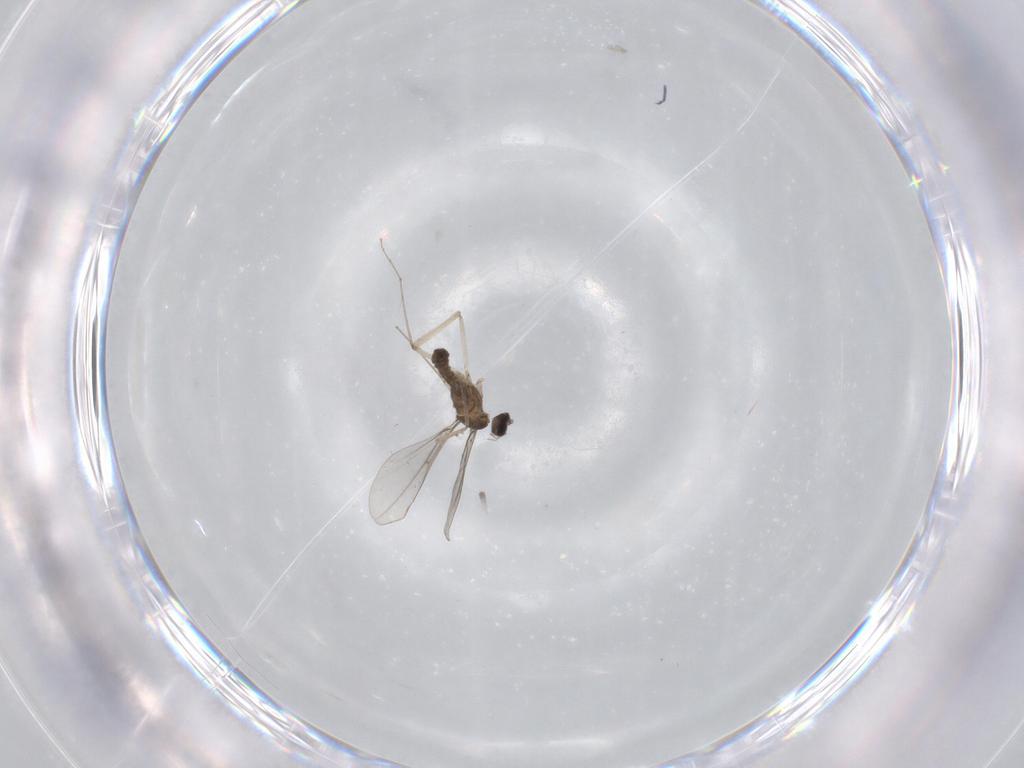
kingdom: Animalia
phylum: Arthropoda
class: Insecta
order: Diptera
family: Cecidomyiidae
